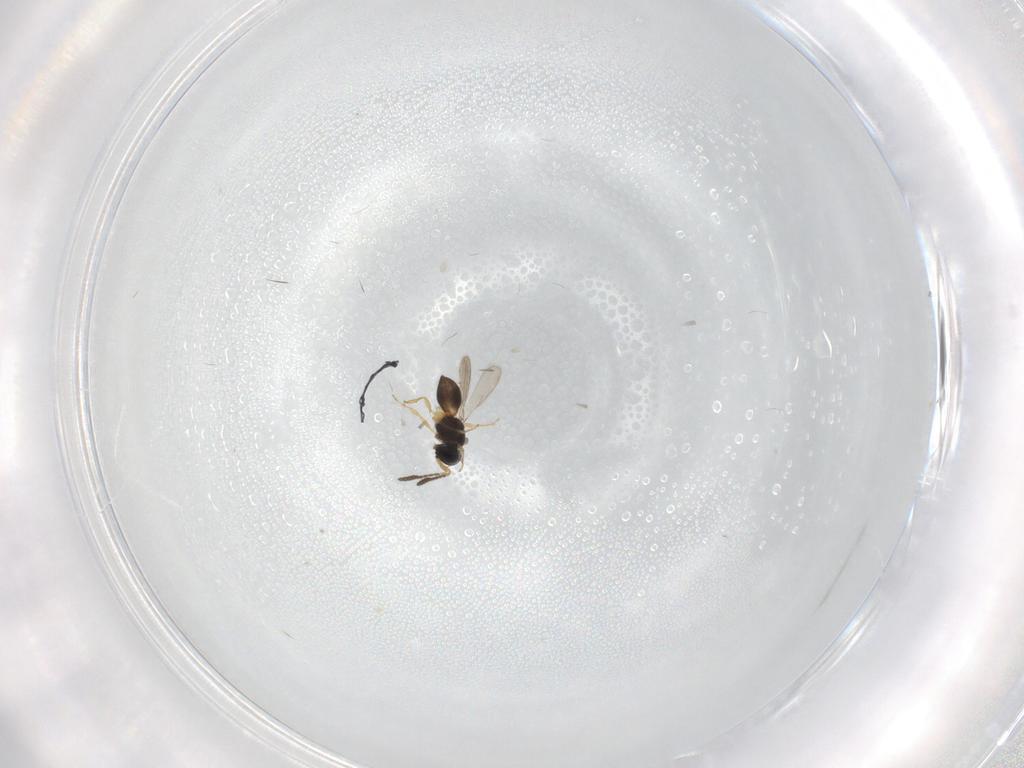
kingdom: Animalia
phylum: Arthropoda
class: Insecta
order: Hymenoptera
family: Scelionidae
